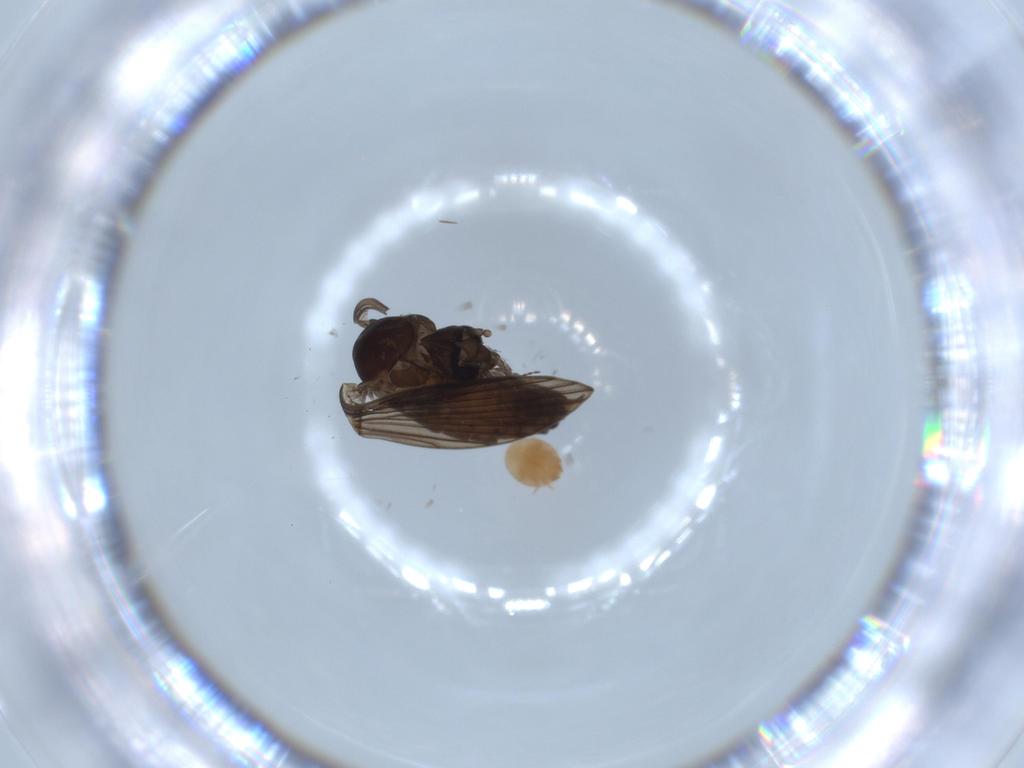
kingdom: Animalia
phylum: Arthropoda
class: Insecta
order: Diptera
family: Psychodidae
